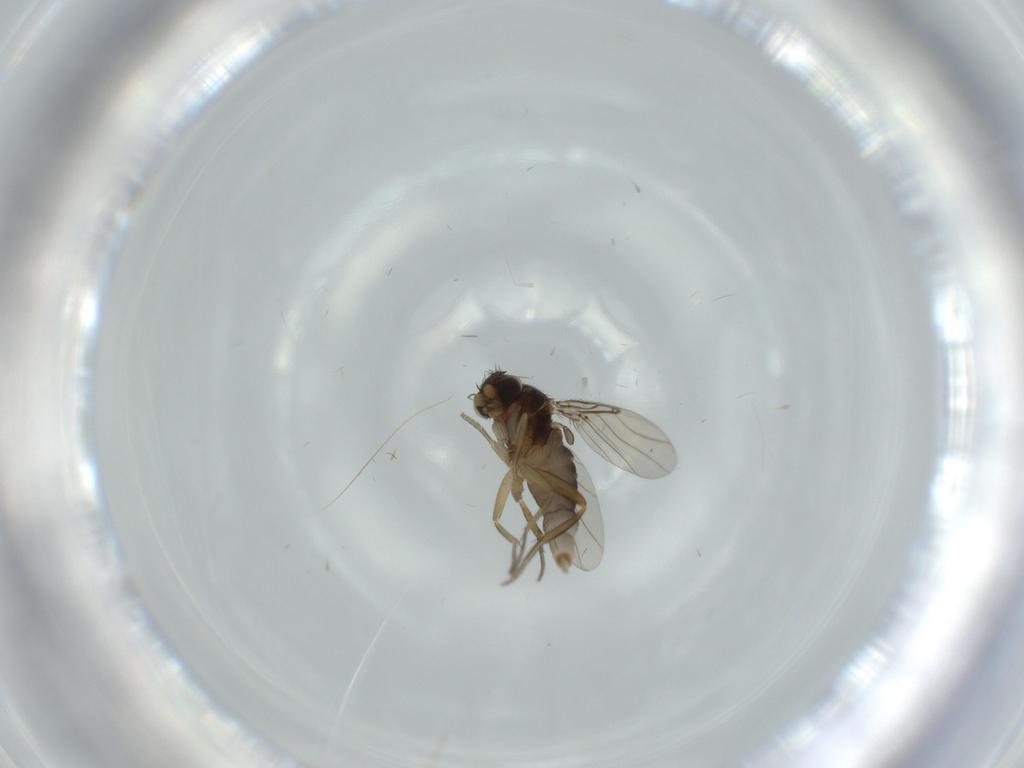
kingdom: Animalia
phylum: Arthropoda
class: Insecta
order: Diptera
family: Phoridae
